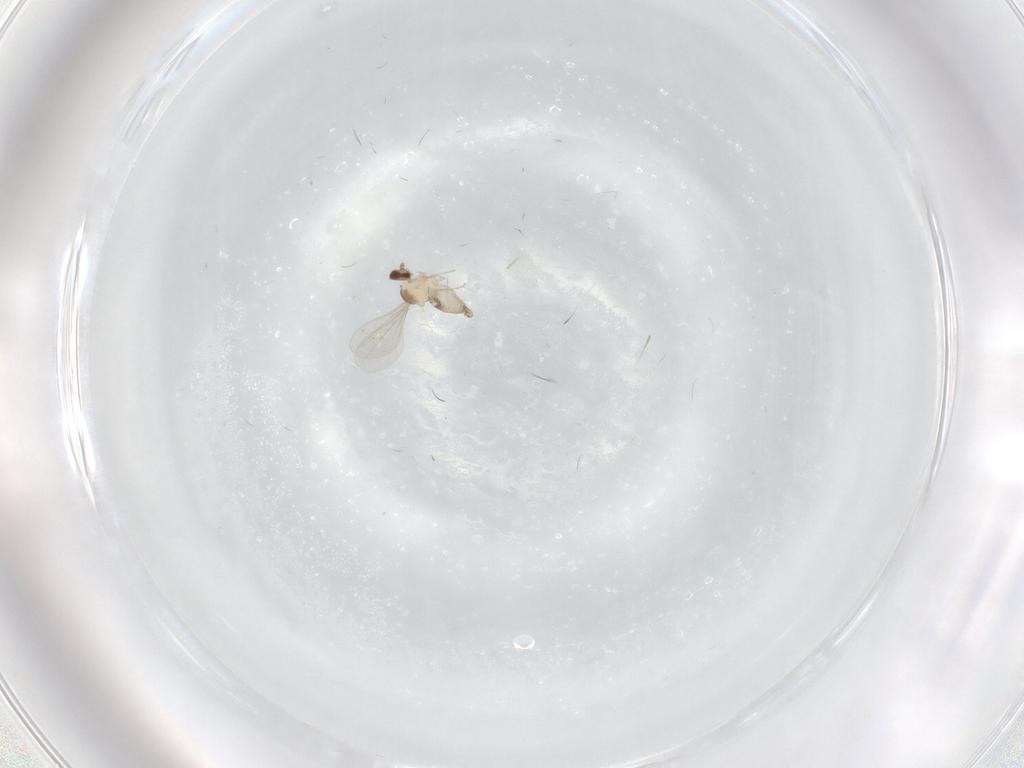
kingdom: Animalia
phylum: Arthropoda
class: Insecta
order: Diptera
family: Cecidomyiidae
